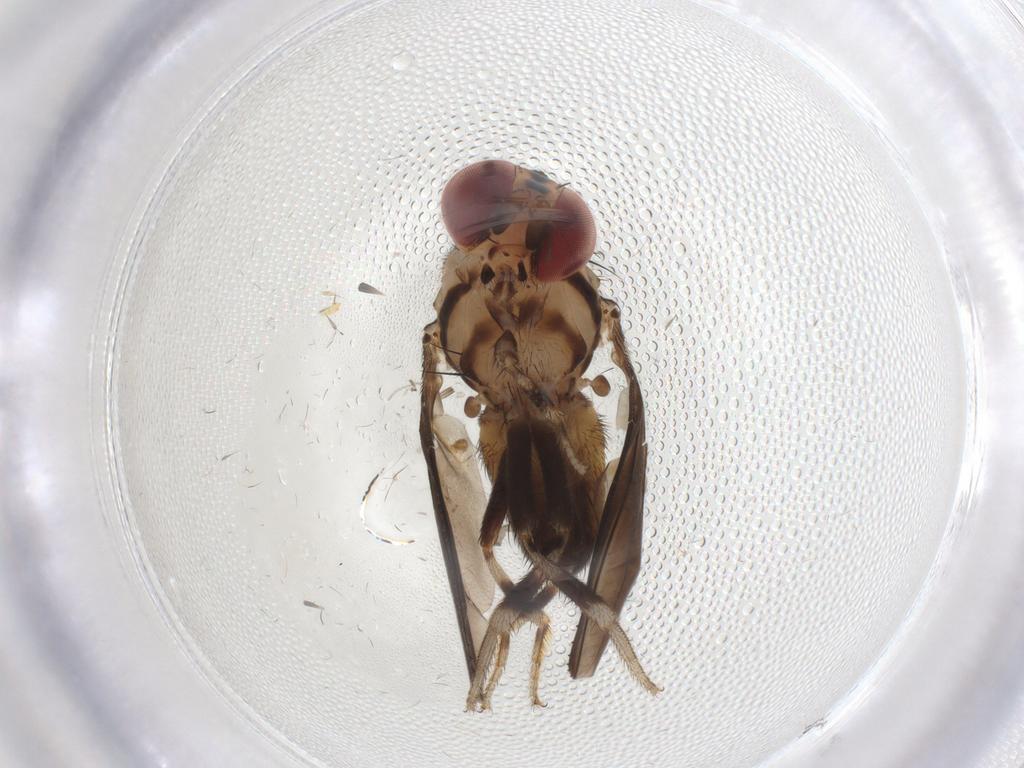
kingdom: Animalia
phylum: Arthropoda
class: Insecta
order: Diptera
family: Drosophilidae
